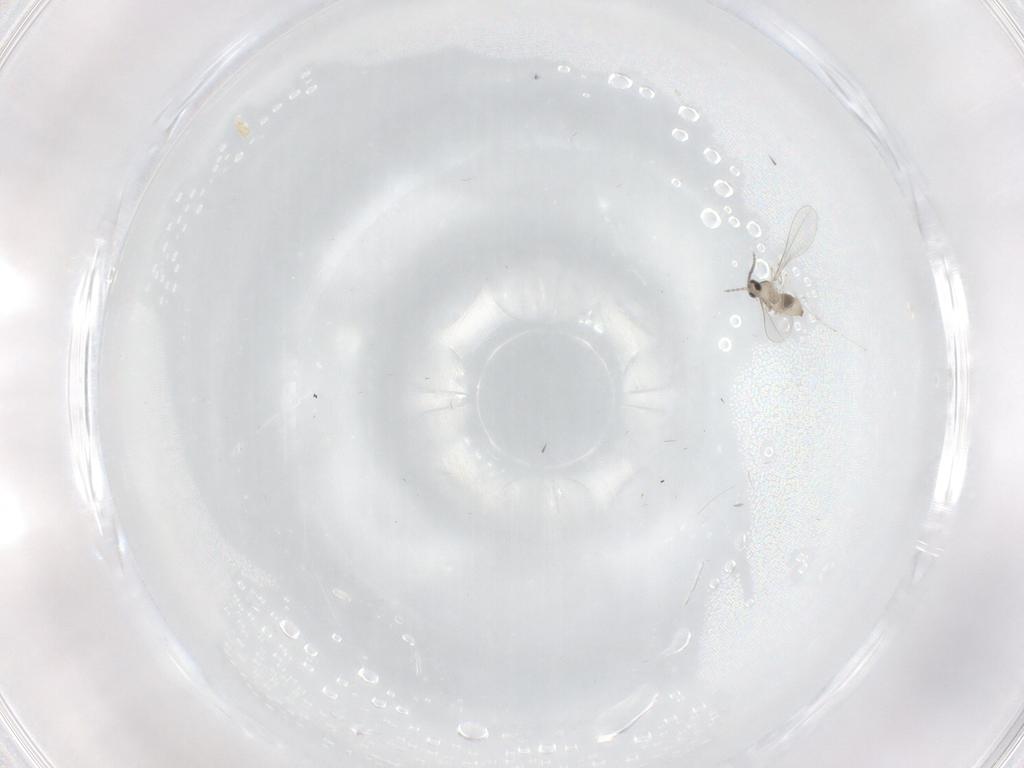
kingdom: Animalia
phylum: Arthropoda
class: Insecta
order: Diptera
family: Cecidomyiidae
